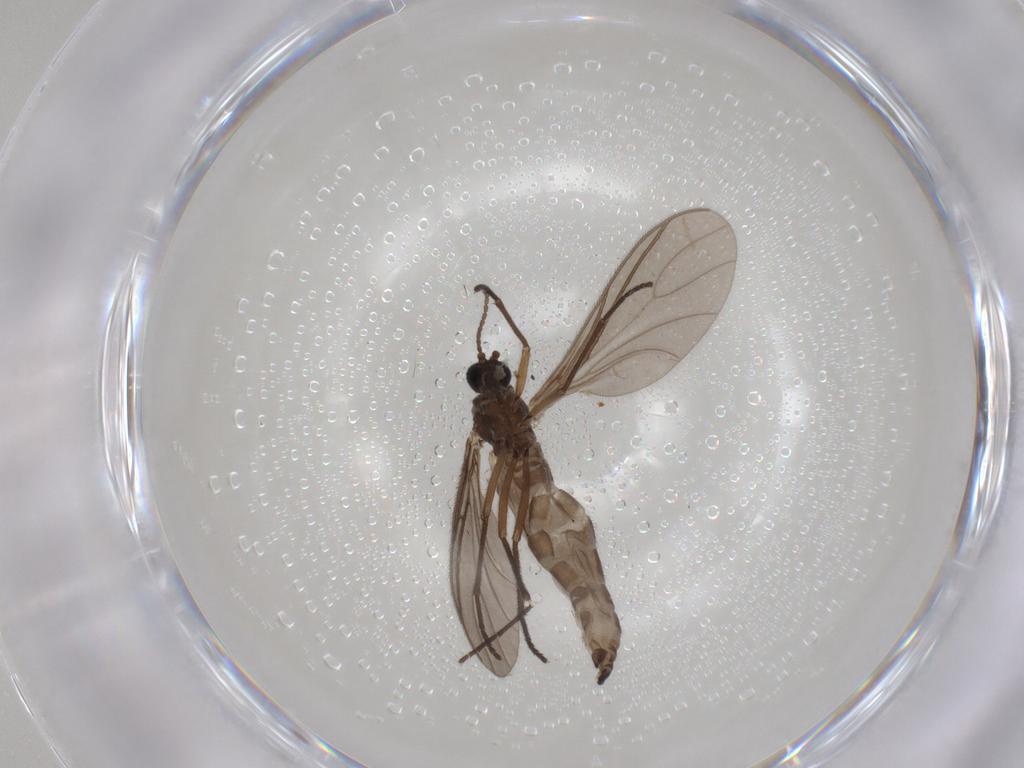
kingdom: Animalia
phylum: Arthropoda
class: Insecta
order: Diptera
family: Sciaridae
